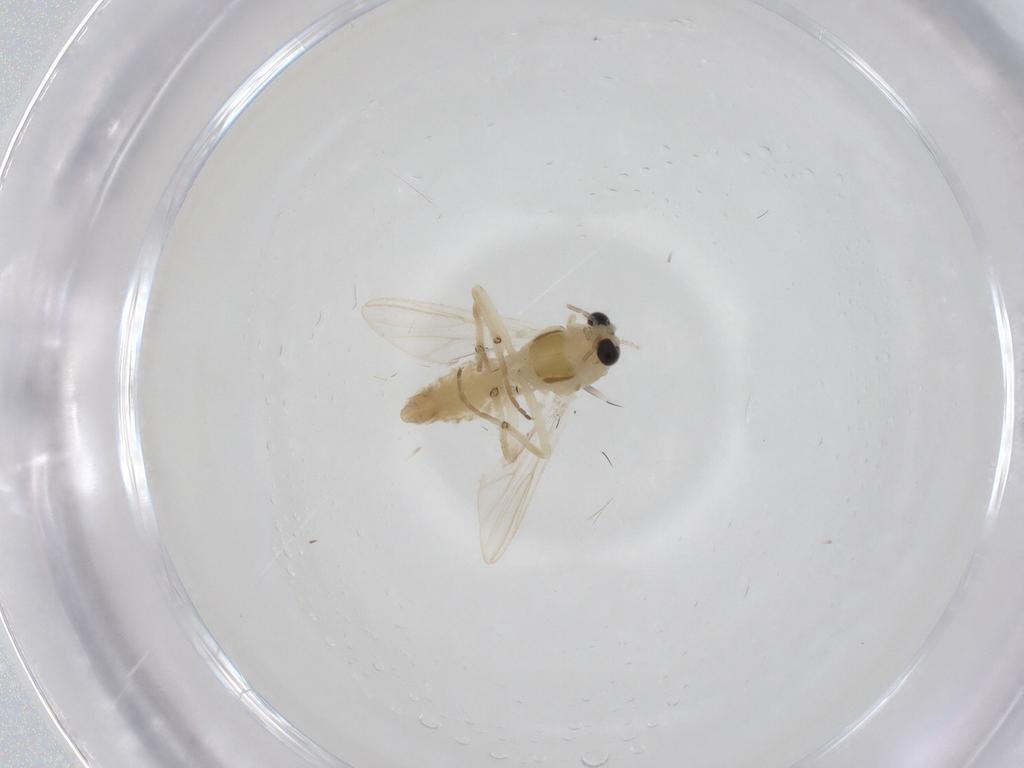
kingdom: Animalia
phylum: Arthropoda
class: Insecta
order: Diptera
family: Chironomidae
